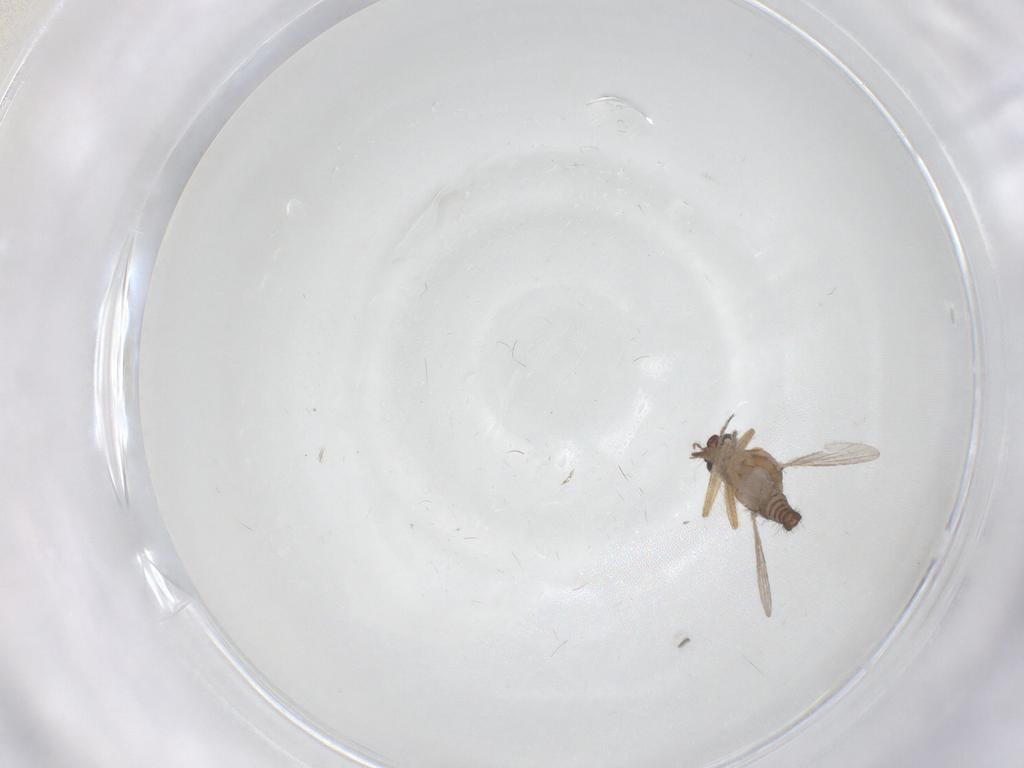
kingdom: Animalia
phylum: Arthropoda
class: Insecta
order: Diptera
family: Ceratopogonidae
